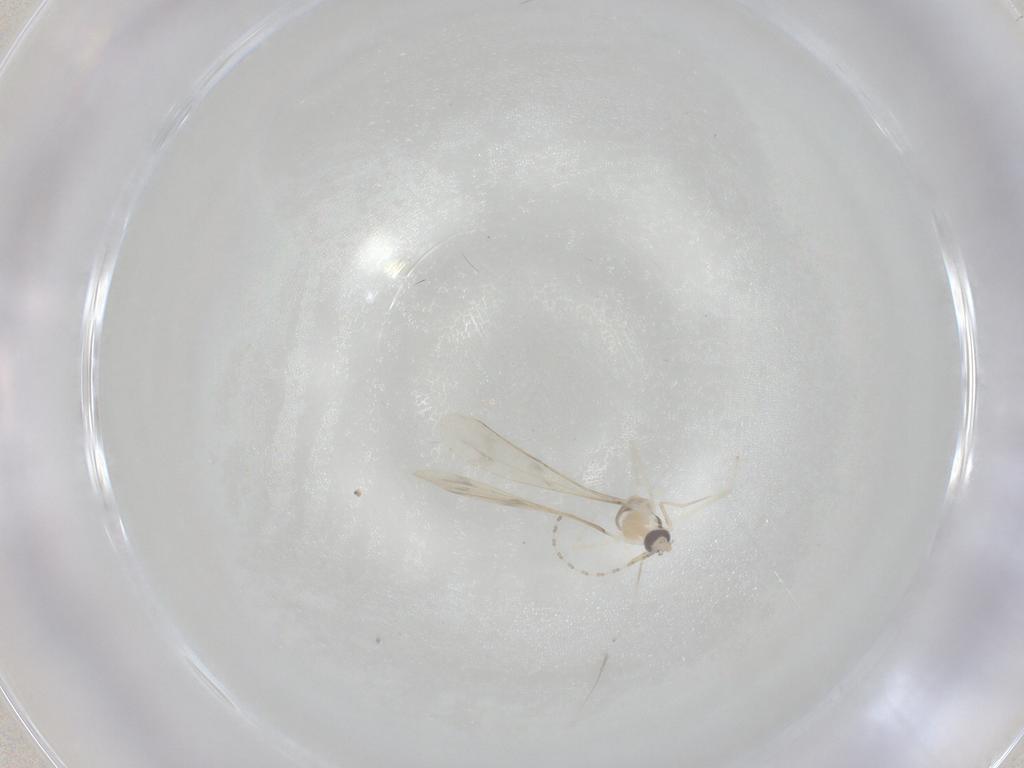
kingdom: Animalia
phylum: Arthropoda
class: Insecta
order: Diptera
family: Cecidomyiidae
